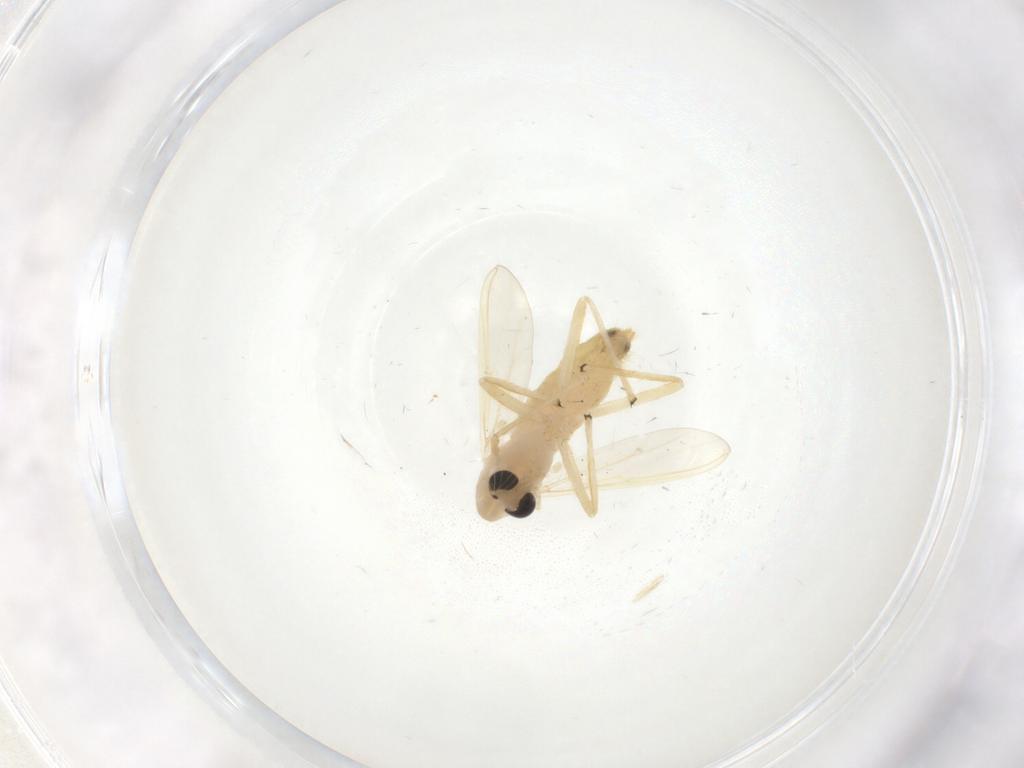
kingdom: Animalia
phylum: Arthropoda
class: Insecta
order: Diptera
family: Chironomidae
